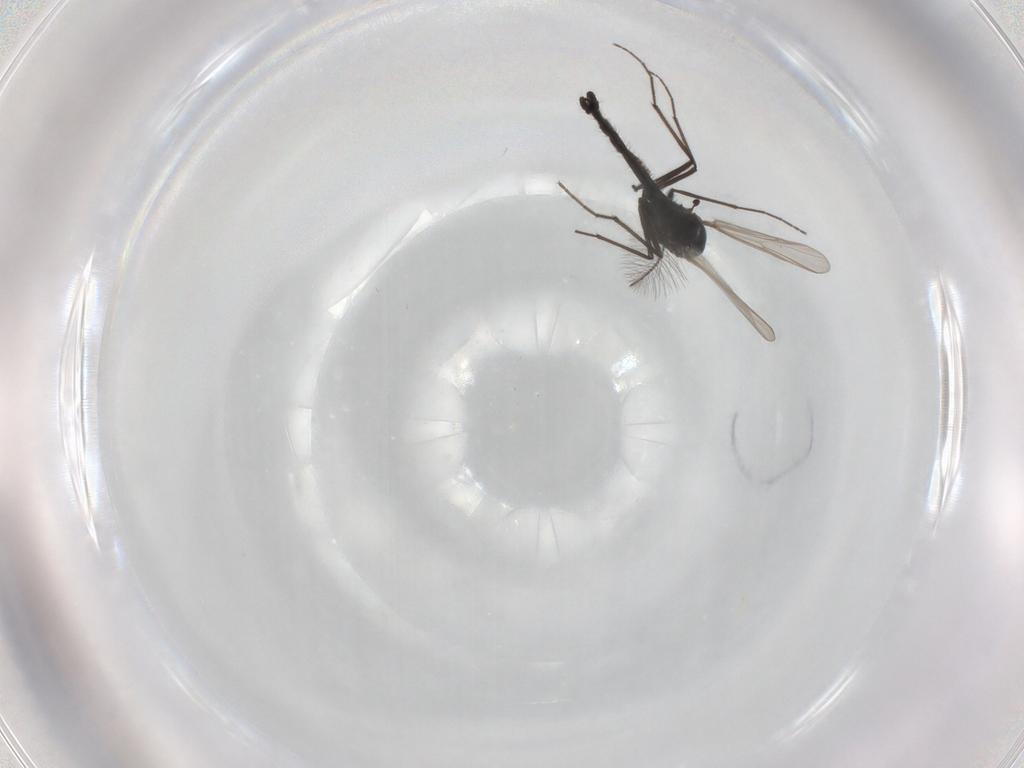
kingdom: Animalia
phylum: Arthropoda
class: Insecta
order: Diptera
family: Chironomidae
